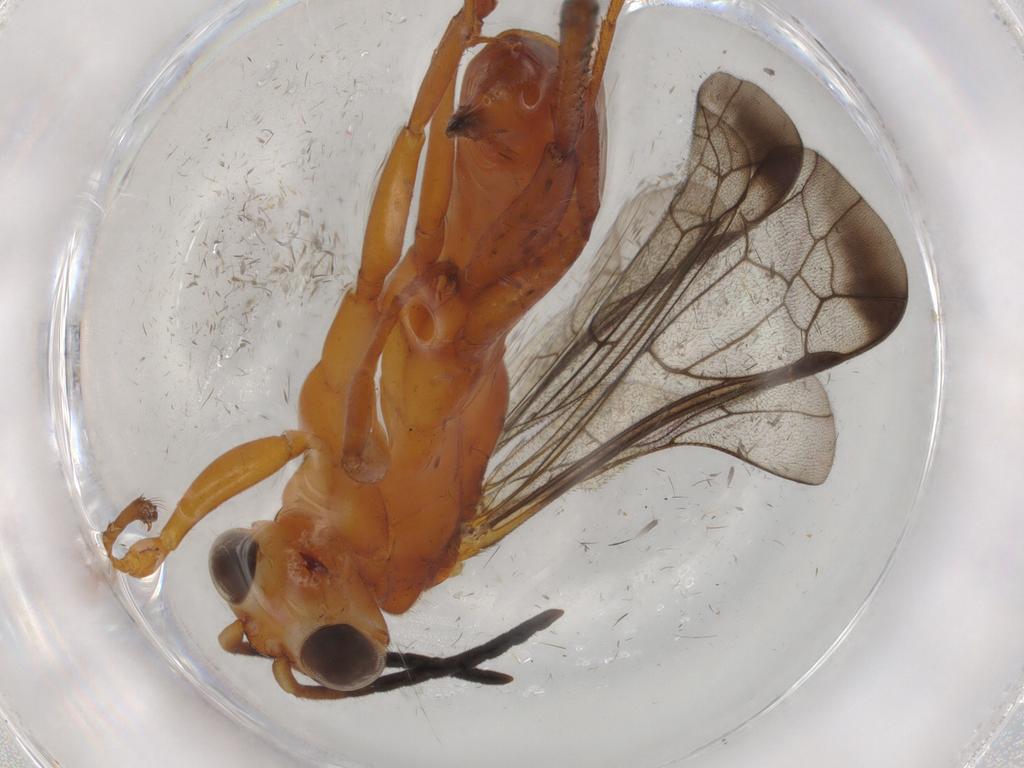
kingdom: Animalia
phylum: Arthropoda
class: Insecta
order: Hymenoptera
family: Pompilidae
